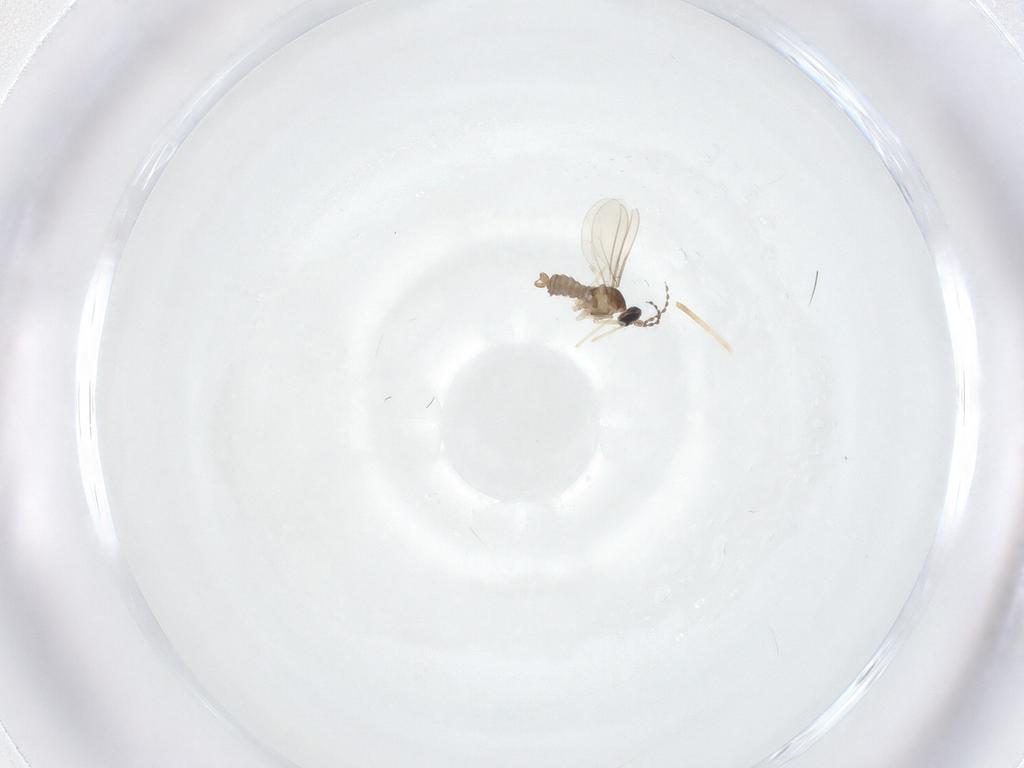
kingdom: Animalia
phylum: Arthropoda
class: Insecta
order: Diptera
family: Cecidomyiidae
